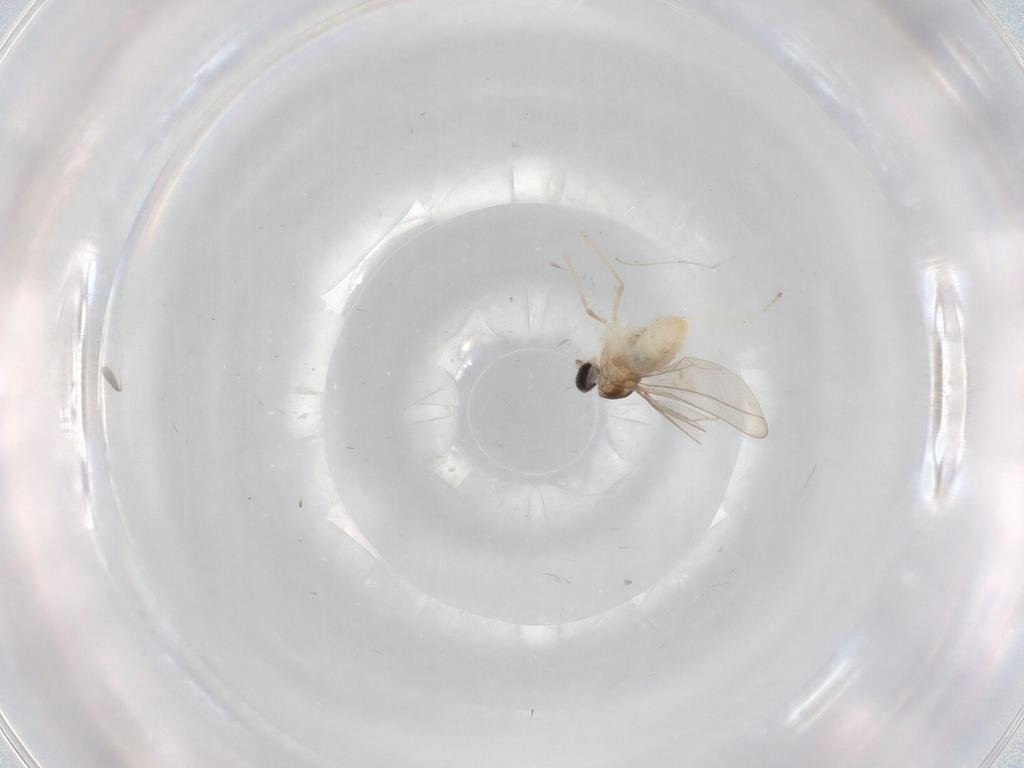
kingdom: Animalia
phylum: Arthropoda
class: Insecta
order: Diptera
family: Cecidomyiidae
